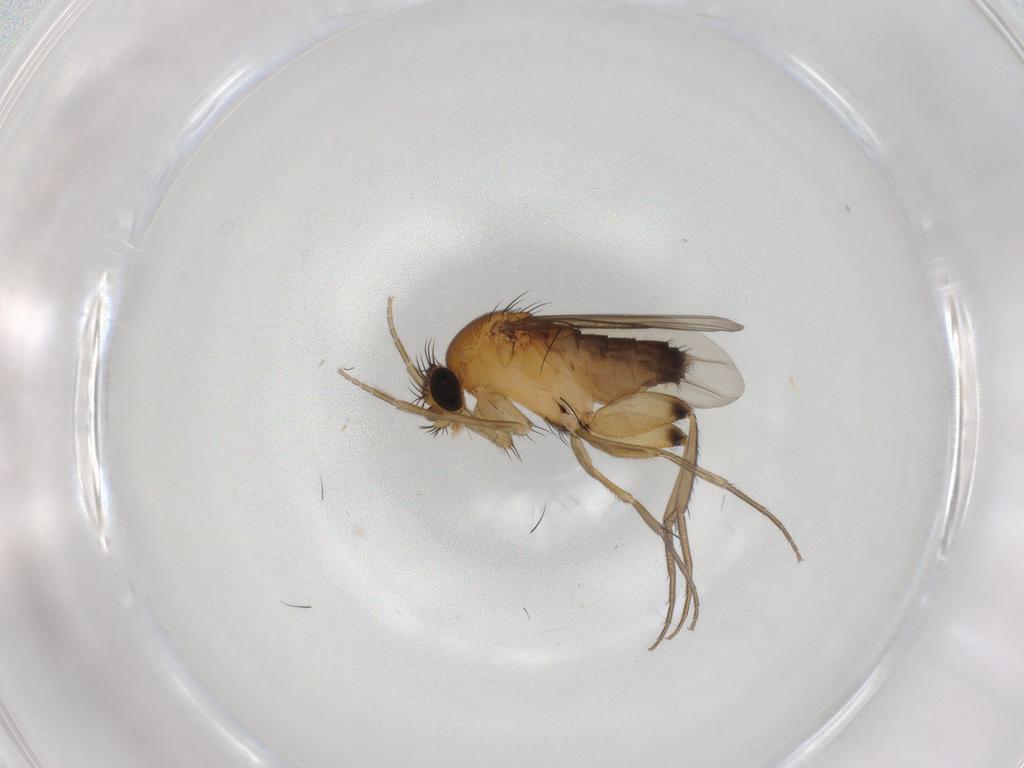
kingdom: Animalia
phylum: Arthropoda
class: Insecta
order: Diptera
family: Phoridae
